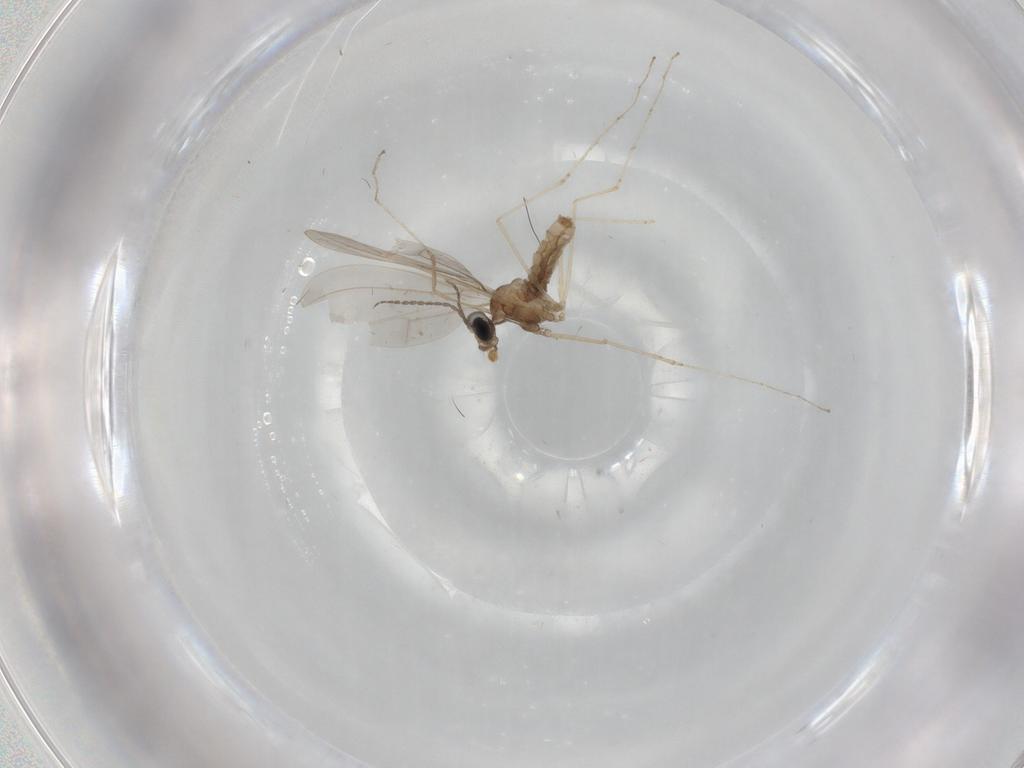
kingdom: Animalia
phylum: Arthropoda
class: Insecta
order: Diptera
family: Cecidomyiidae
